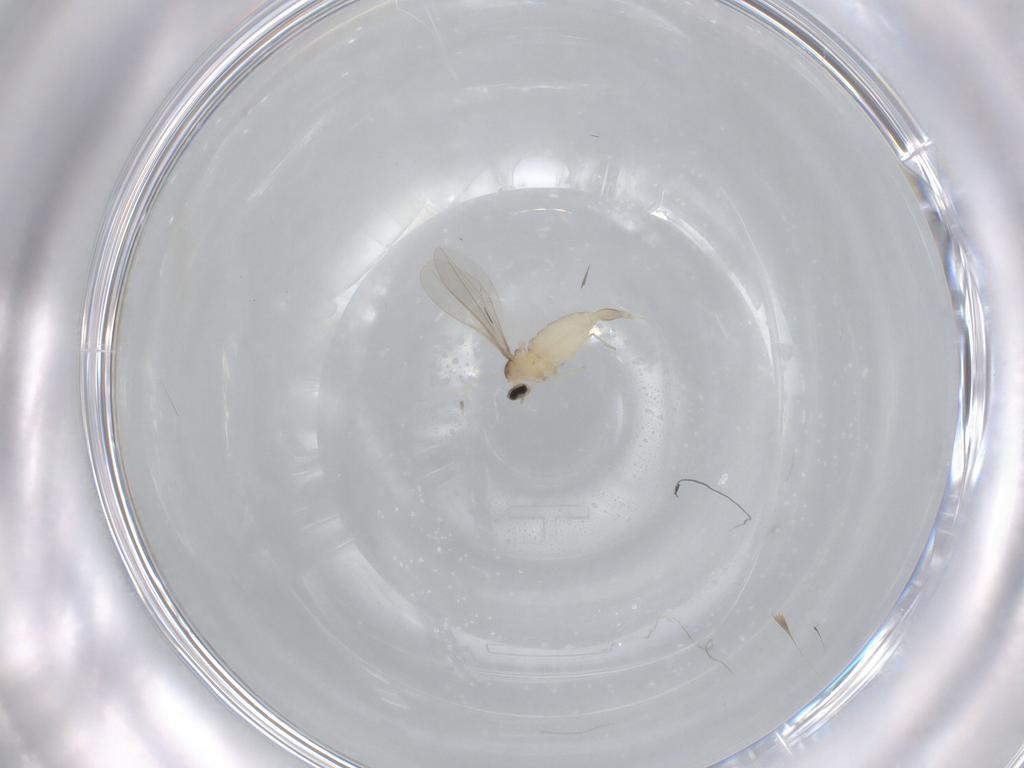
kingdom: Animalia
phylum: Arthropoda
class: Insecta
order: Diptera
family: Cecidomyiidae
